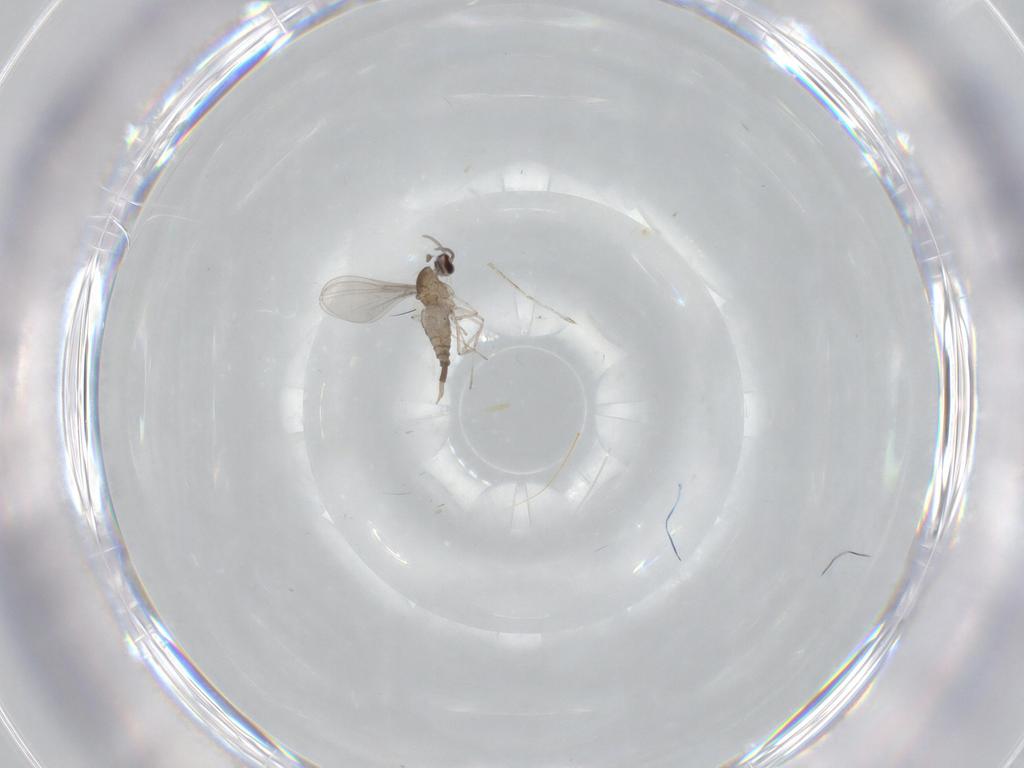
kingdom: Animalia
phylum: Arthropoda
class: Insecta
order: Diptera
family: Cecidomyiidae
